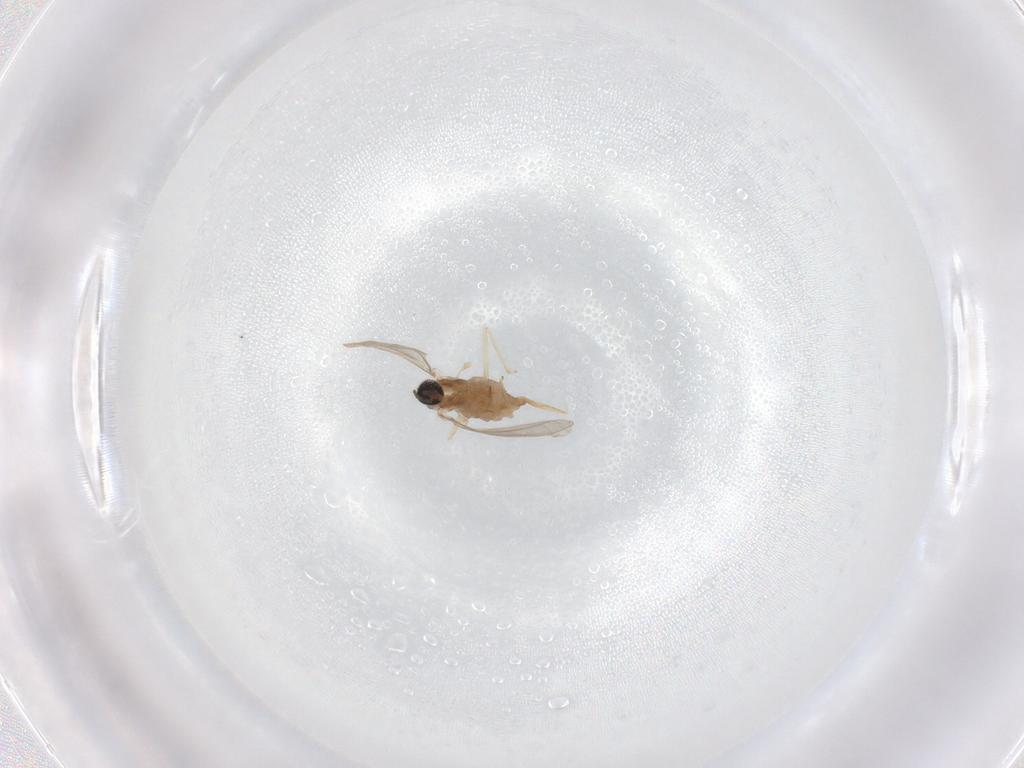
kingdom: Animalia
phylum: Arthropoda
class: Insecta
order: Diptera
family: Cecidomyiidae
